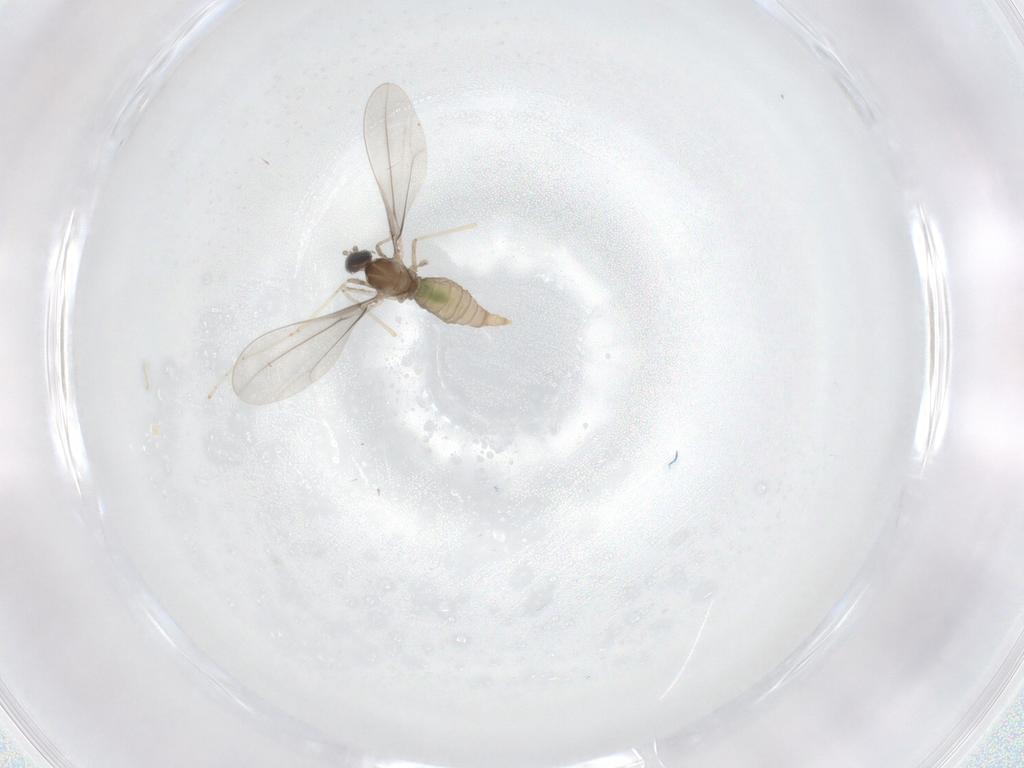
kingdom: Animalia
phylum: Arthropoda
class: Insecta
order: Diptera
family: Cecidomyiidae
